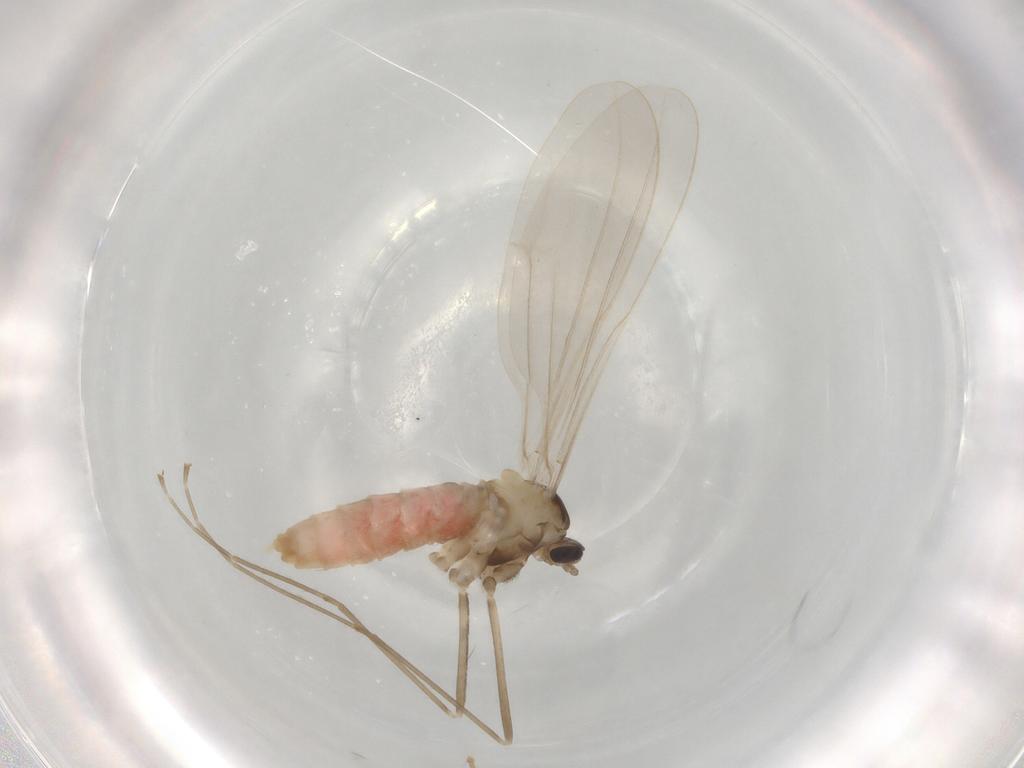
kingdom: Animalia
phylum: Arthropoda
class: Insecta
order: Diptera
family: Cecidomyiidae
